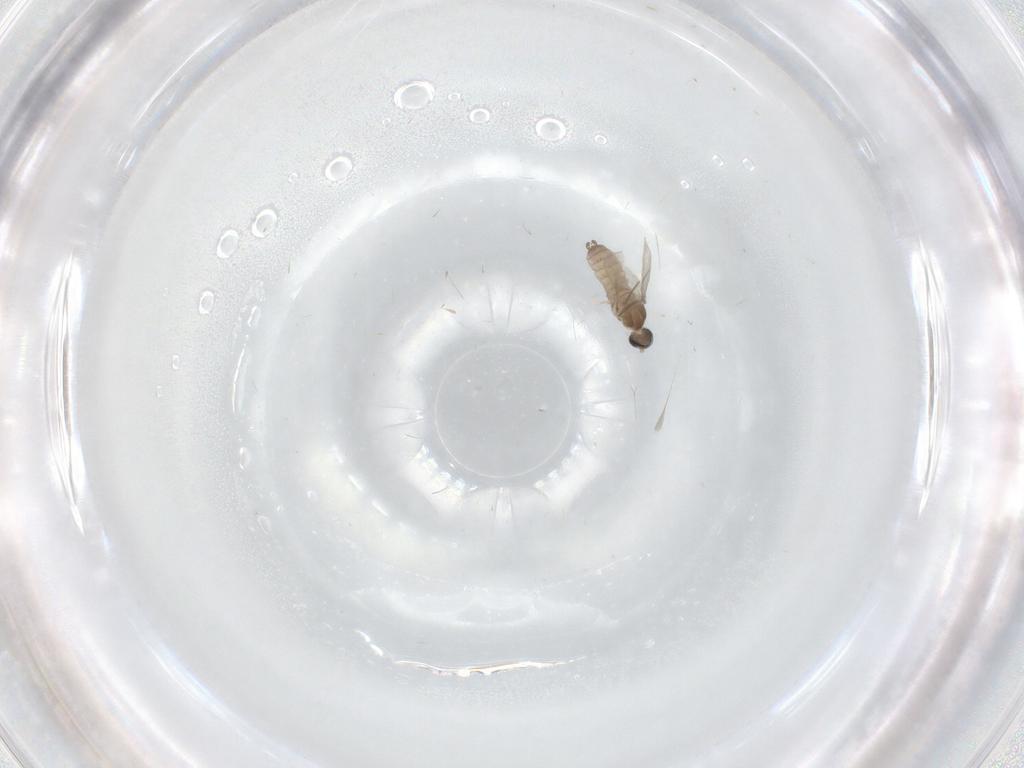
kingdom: Animalia
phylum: Arthropoda
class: Insecta
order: Diptera
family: Cecidomyiidae
